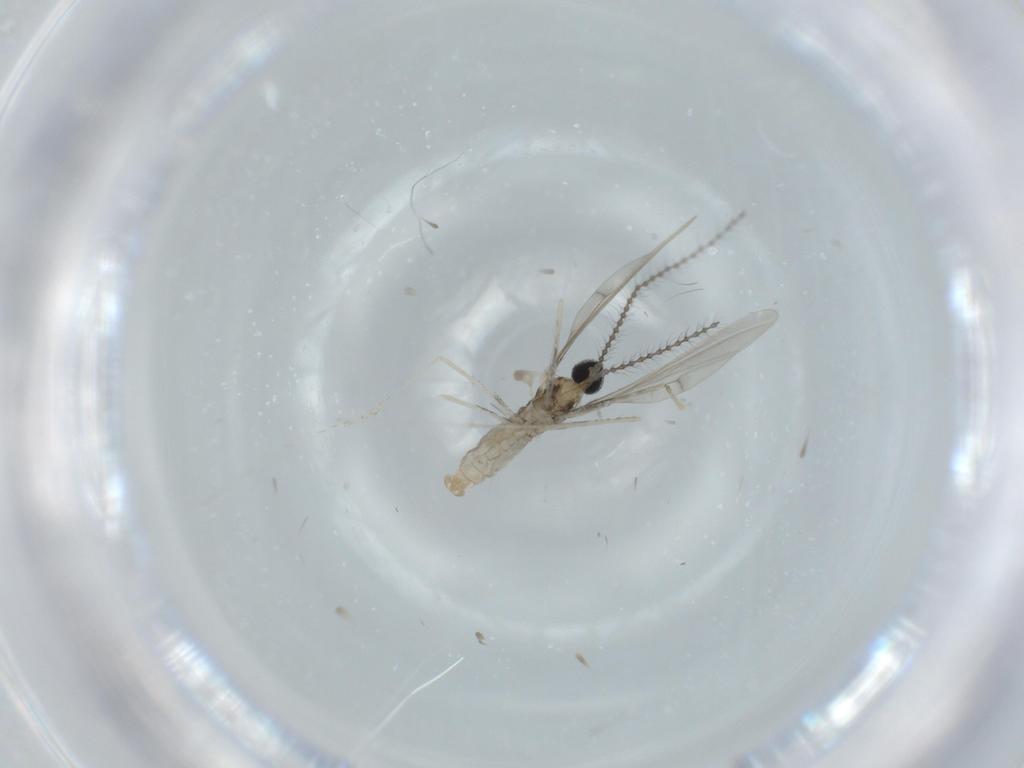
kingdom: Animalia
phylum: Arthropoda
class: Insecta
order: Diptera
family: Cecidomyiidae
